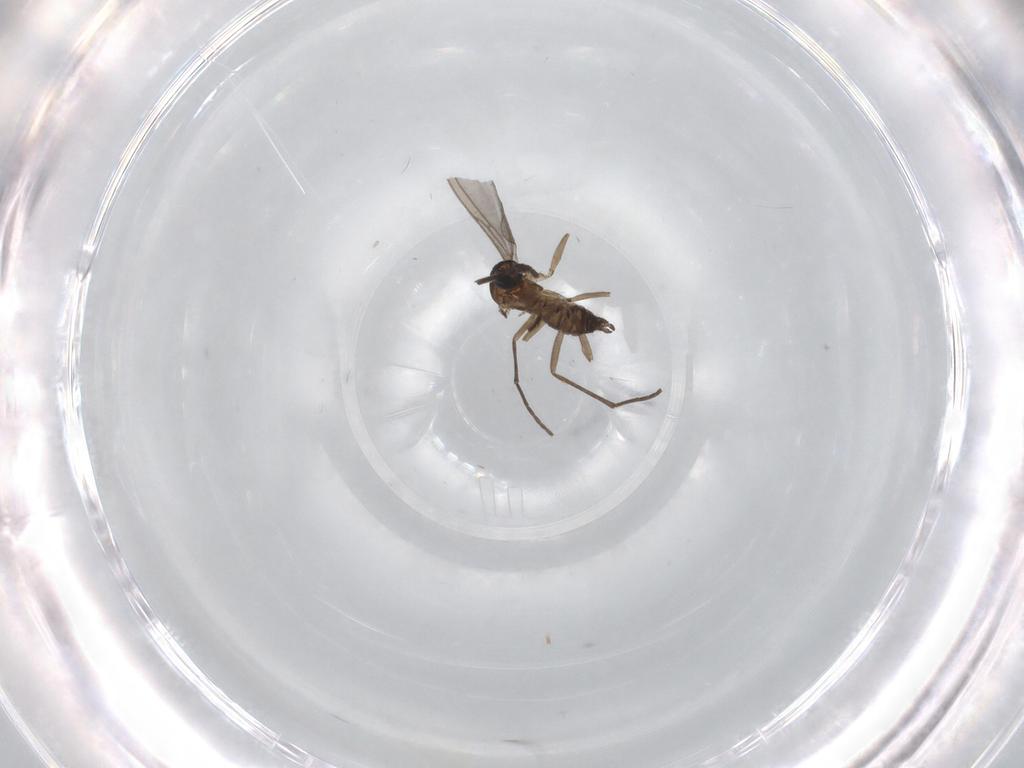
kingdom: Animalia
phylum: Arthropoda
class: Insecta
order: Diptera
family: Sciaridae
